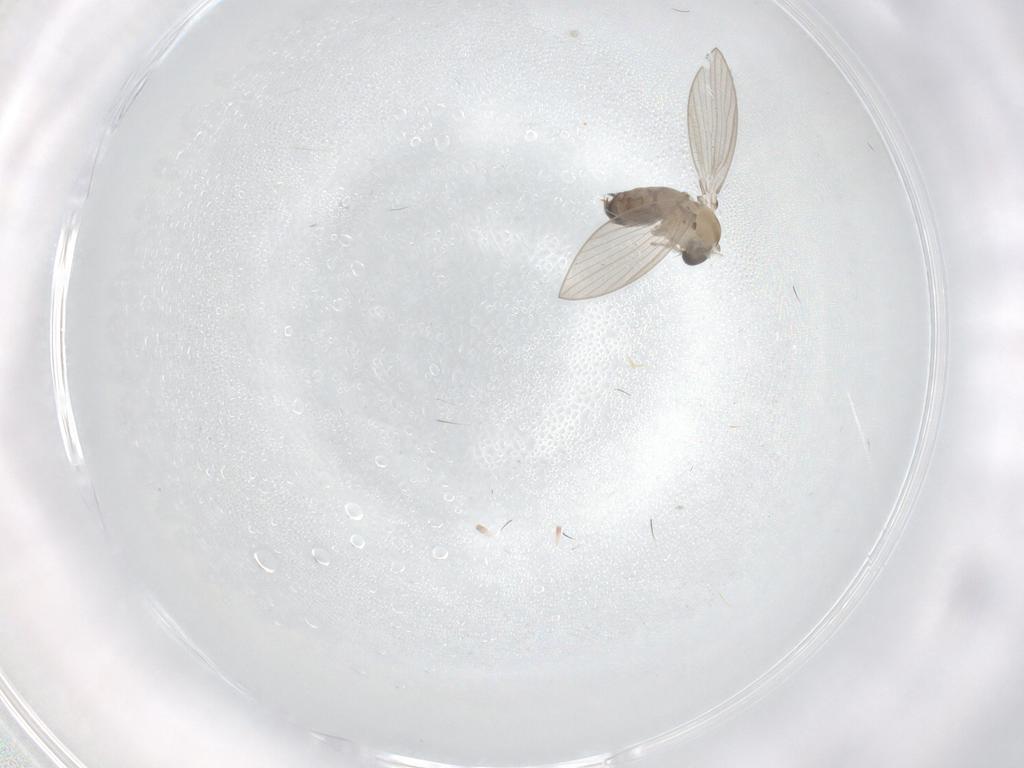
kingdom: Animalia
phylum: Arthropoda
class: Insecta
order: Diptera
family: Psychodidae
